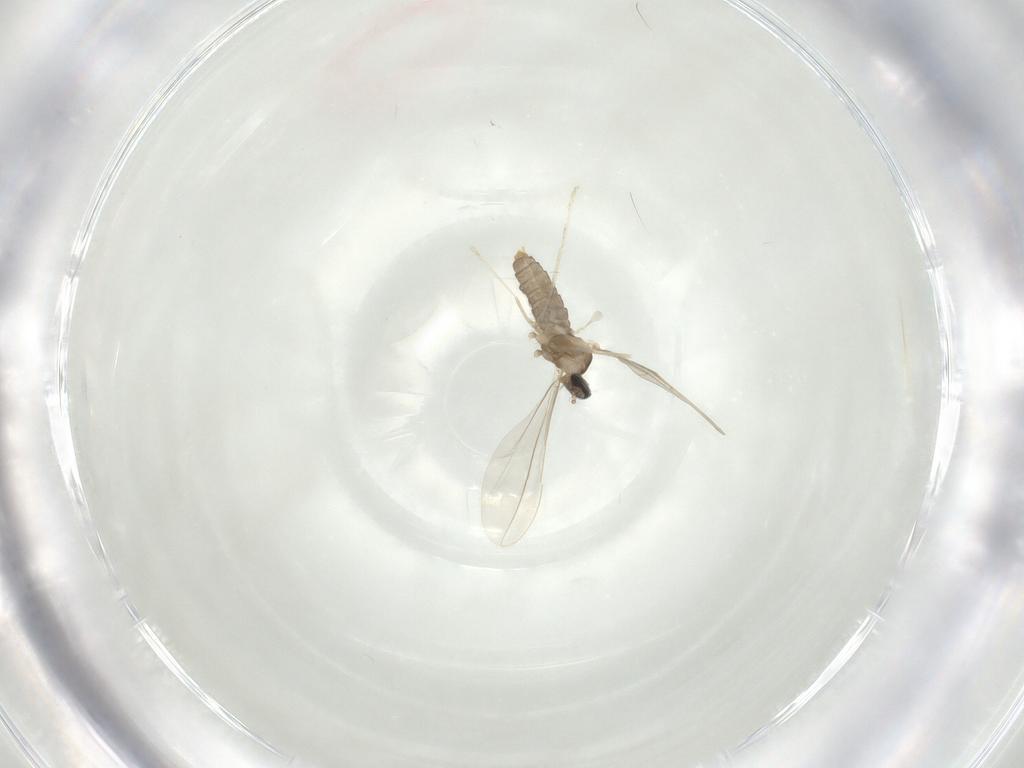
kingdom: Animalia
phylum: Arthropoda
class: Insecta
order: Diptera
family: Cecidomyiidae
